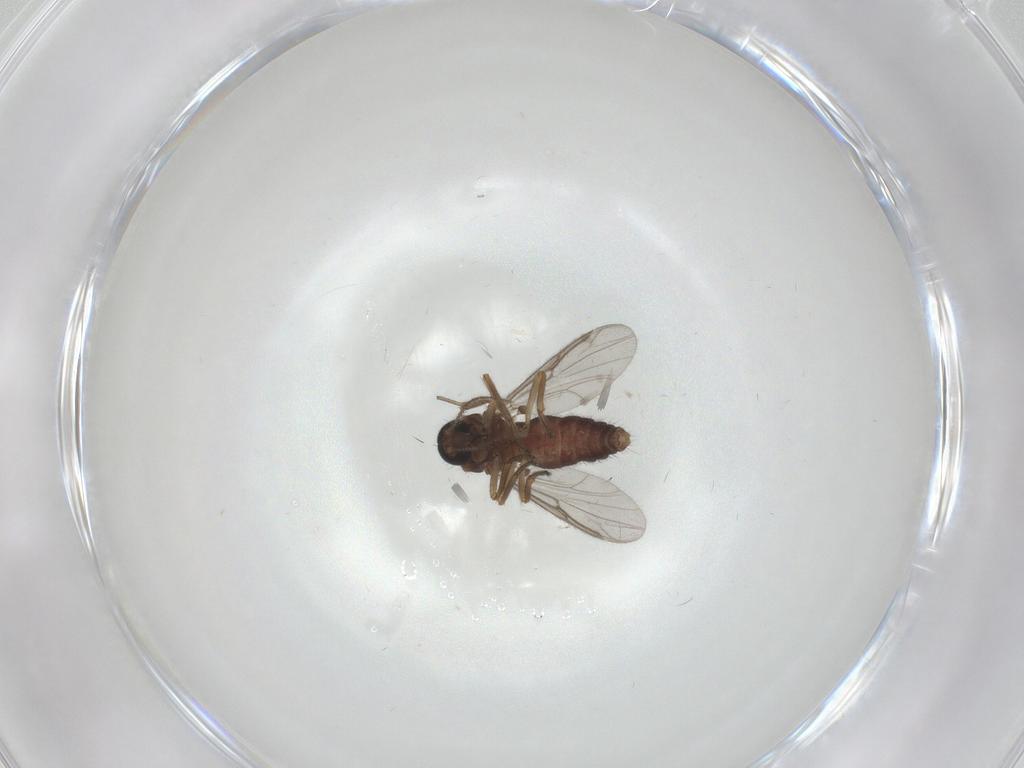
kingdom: Animalia
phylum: Arthropoda
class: Insecta
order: Diptera
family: Ceratopogonidae
